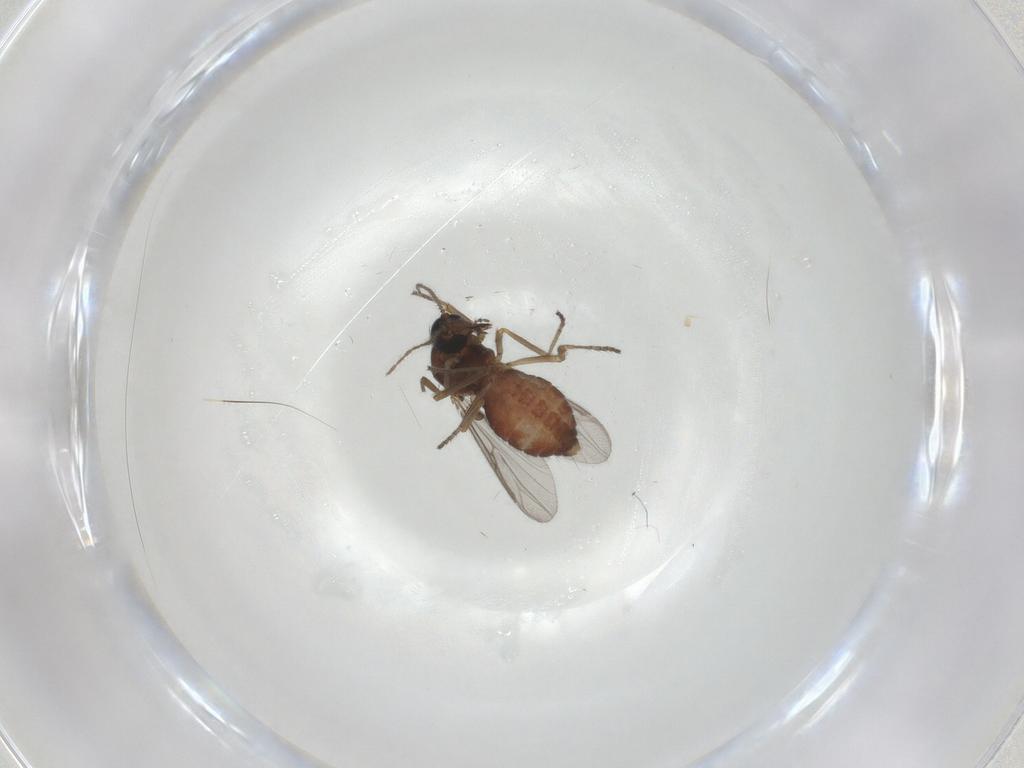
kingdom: Animalia
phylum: Arthropoda
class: Insecta
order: Diptera
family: Ceratopogonidae
